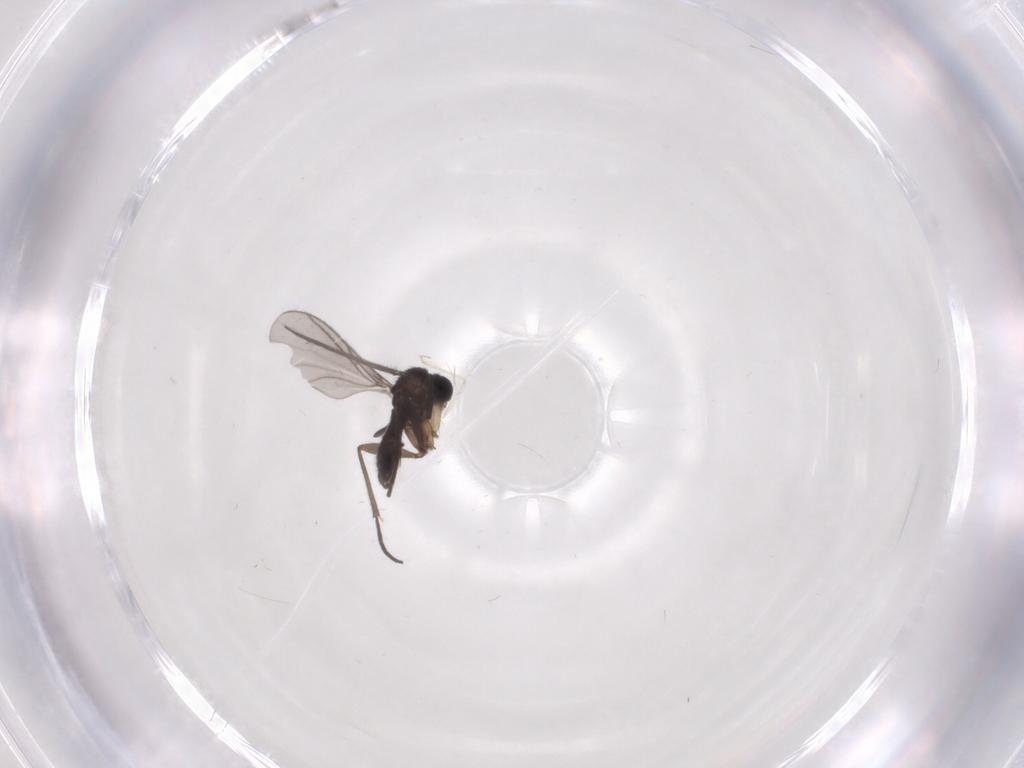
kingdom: Animalia
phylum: Arthropoda
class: Insecta
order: Diptera
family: Sciaridae
